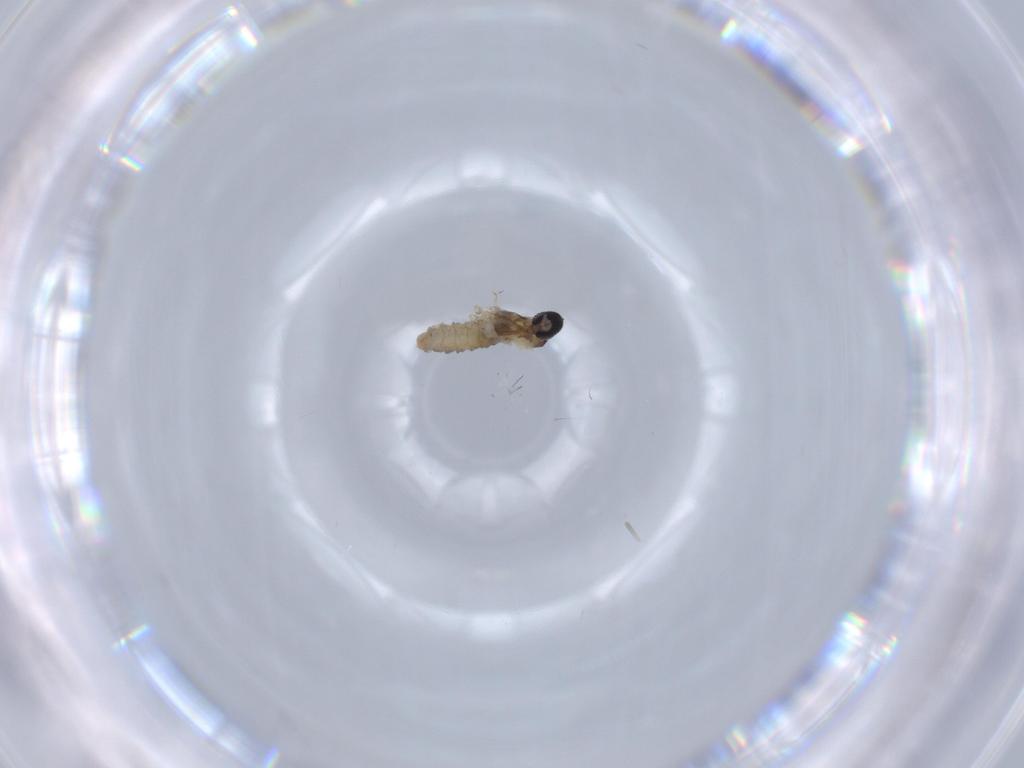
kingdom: Animalia
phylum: Arthropoda
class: Insecta
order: Diptera
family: Cecidomyiidae
